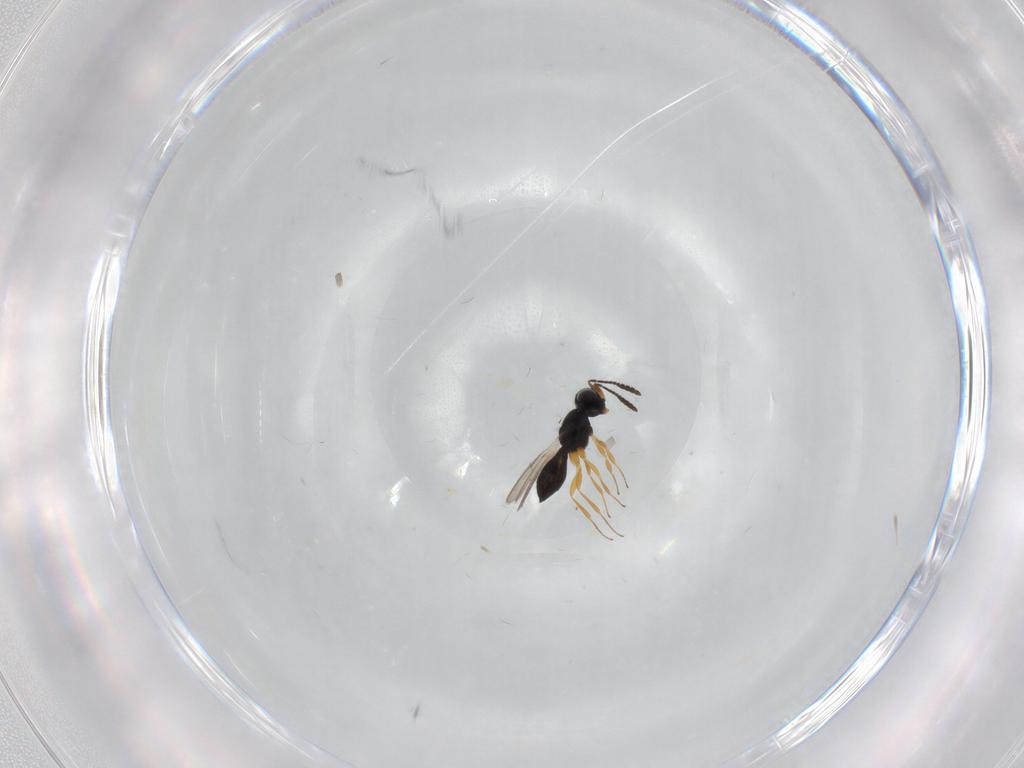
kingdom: Animalia
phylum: Arthropoda
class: Insecta
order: Hymenoptera
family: Scelionidae
